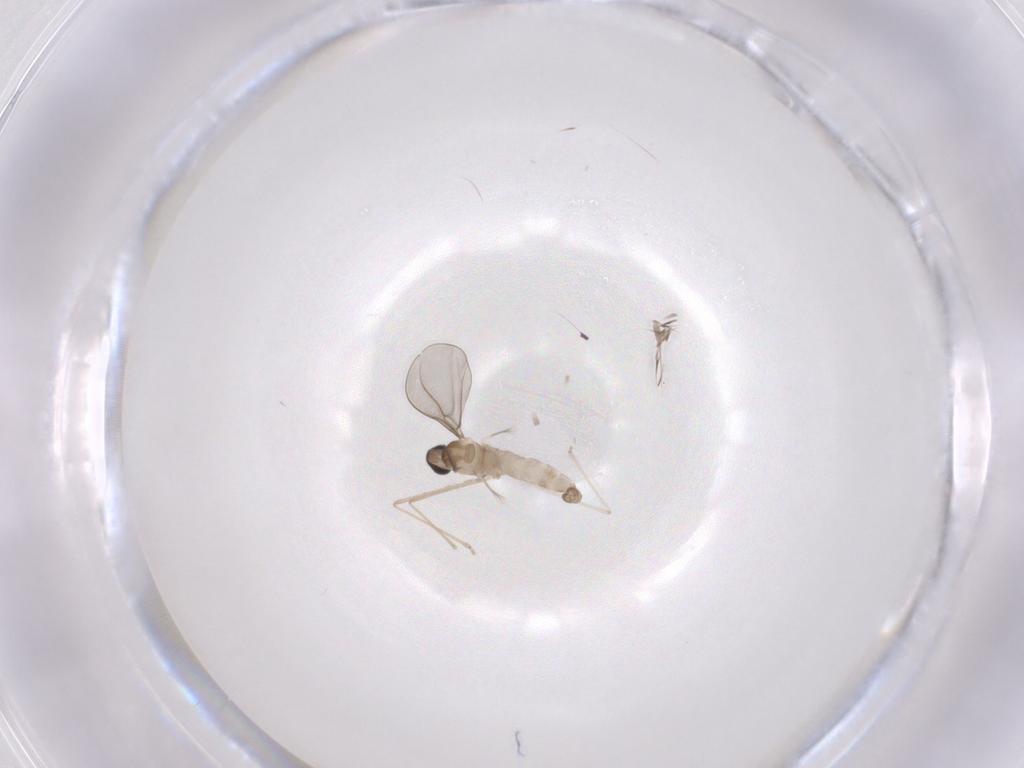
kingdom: Animalia
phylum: Arthropoda
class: Insecta
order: Diptera
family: Cecidomyiidae
